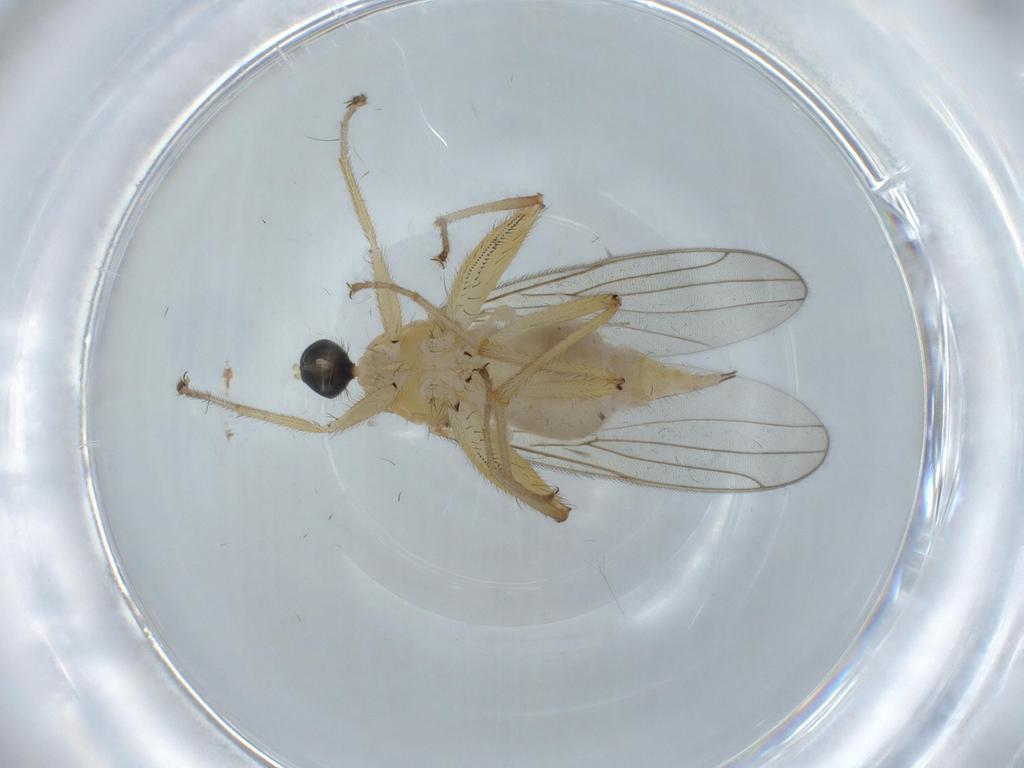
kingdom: Animalia
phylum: Arthropoda
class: Insecta
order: Diptera
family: Hybotidae
